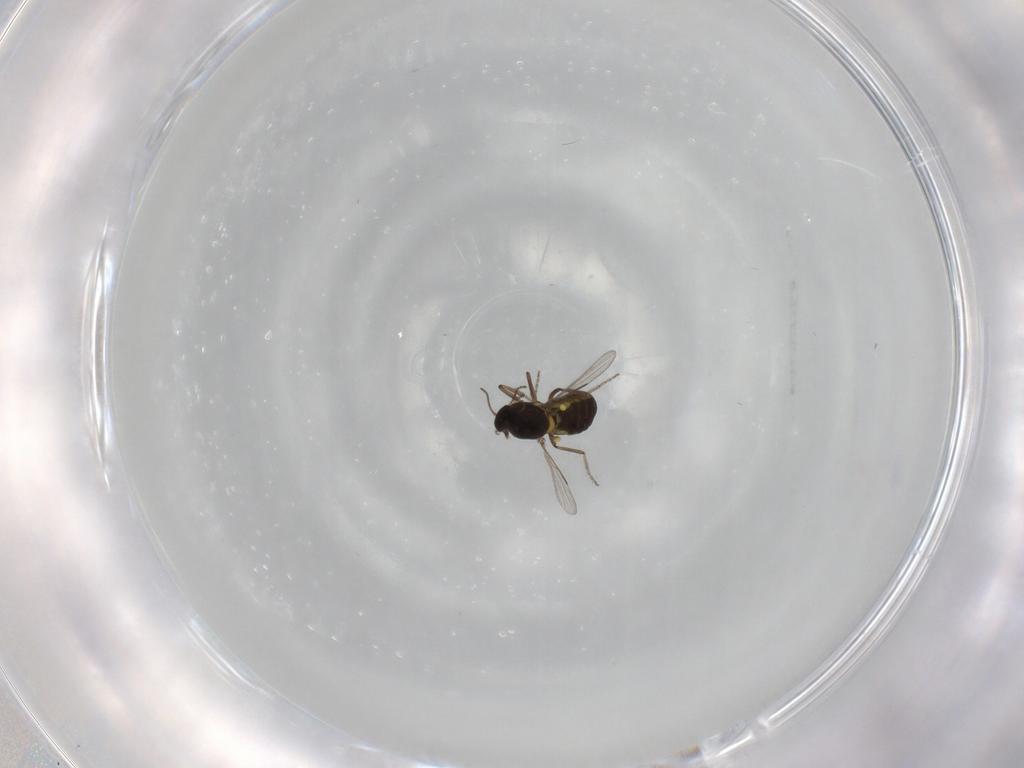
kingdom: Animalia
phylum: Arthropoda
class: Insecta
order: Diptera
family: Ceratopogonidae
